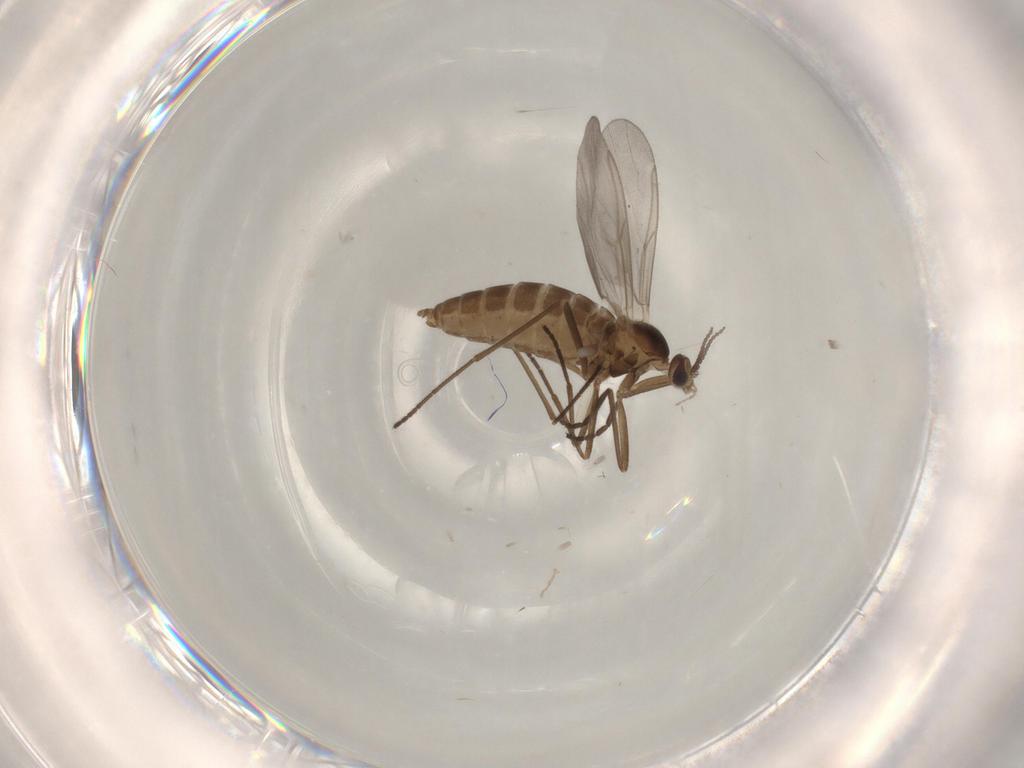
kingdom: Animalia
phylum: Arthropoda
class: Insecta
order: Diptera
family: Cecidomyiidae
